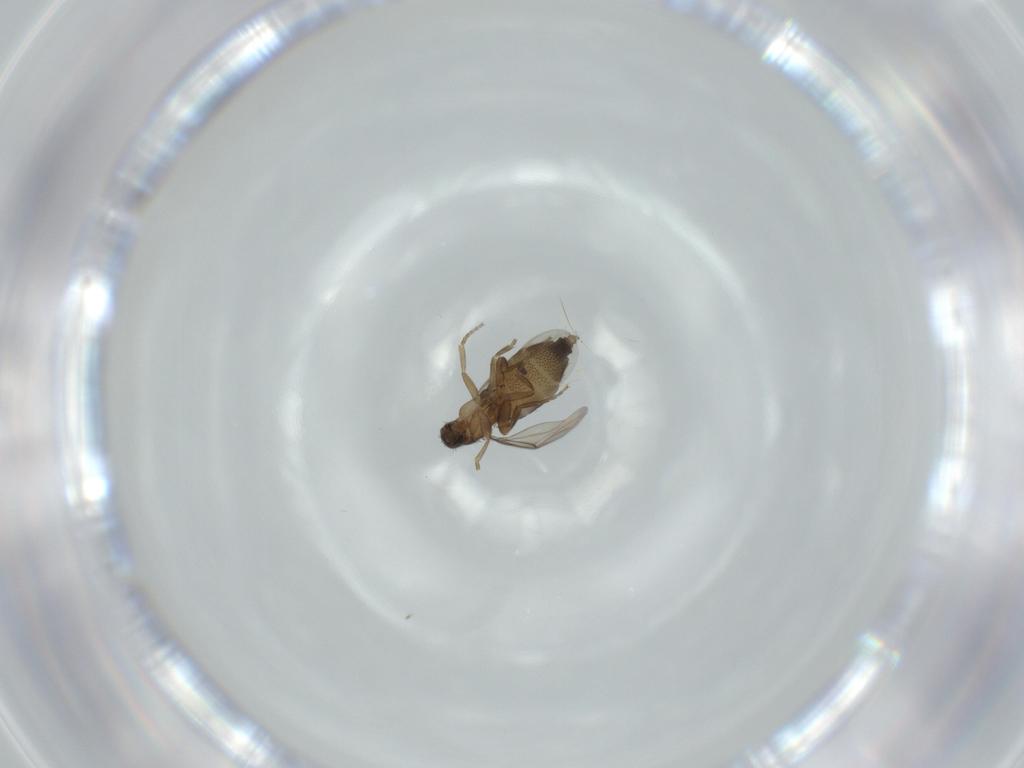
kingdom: Animalia
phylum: Arthropoda
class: Insecta
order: Diptera
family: Phoridae
